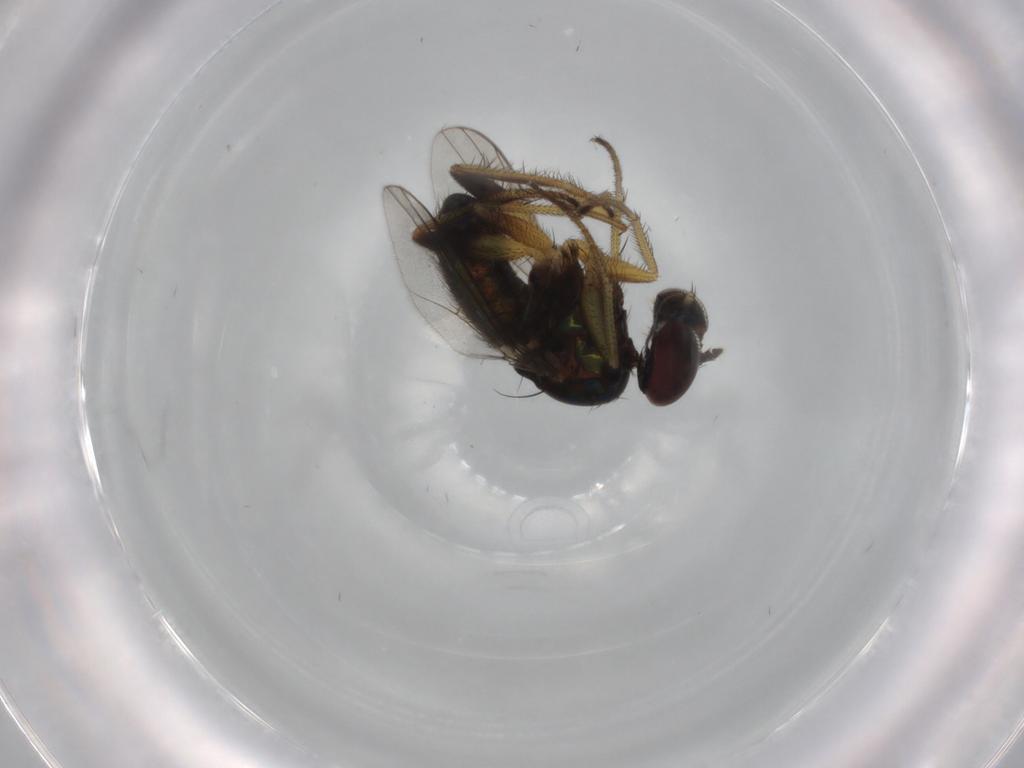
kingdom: Animalia
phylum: Arthropoda
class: Insecta
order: Diptera
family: Dolichopodidae
